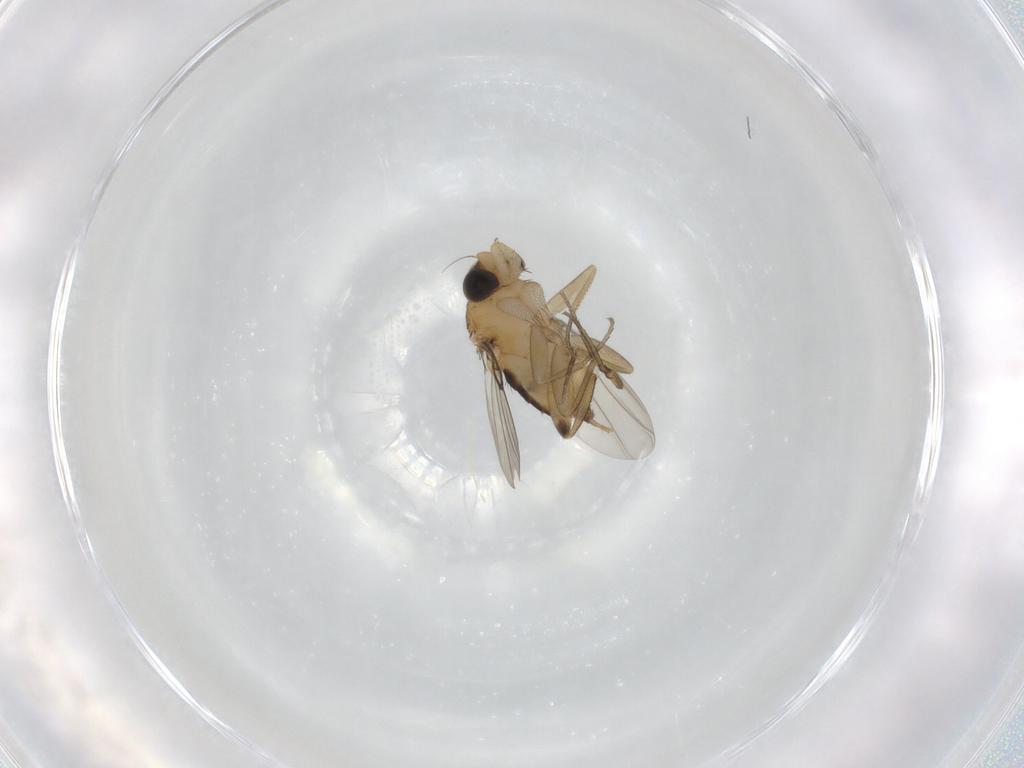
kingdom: Animalia
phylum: Arthropoda
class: Insecta
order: Diptera
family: Phoridae
